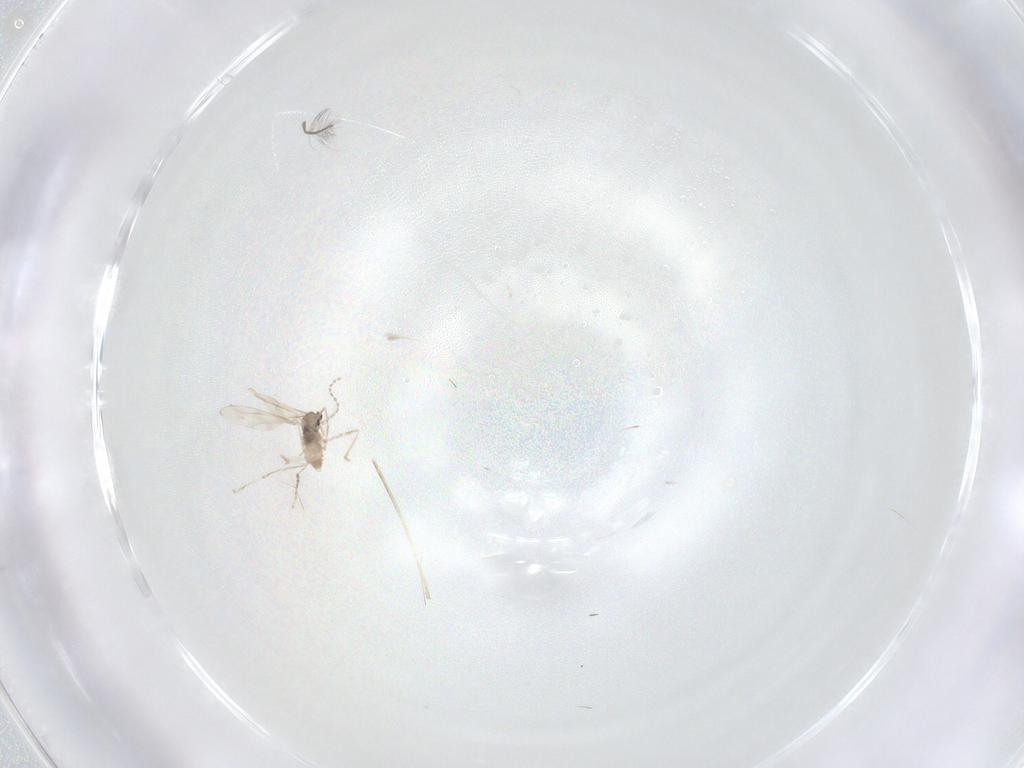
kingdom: Animalia
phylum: Arthropoda
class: Insecta
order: Diptera
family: Cecidomyiidae
